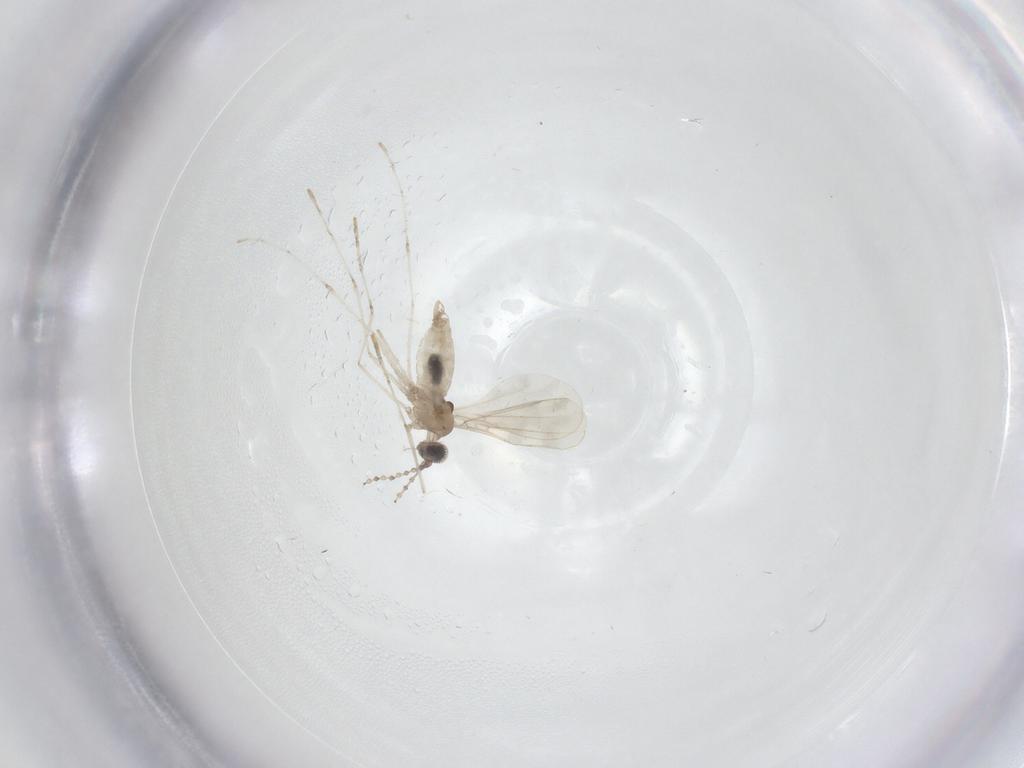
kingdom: Animalia
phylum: Arthropoda
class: Insecta
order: Diptera
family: Cecidomyiidae
